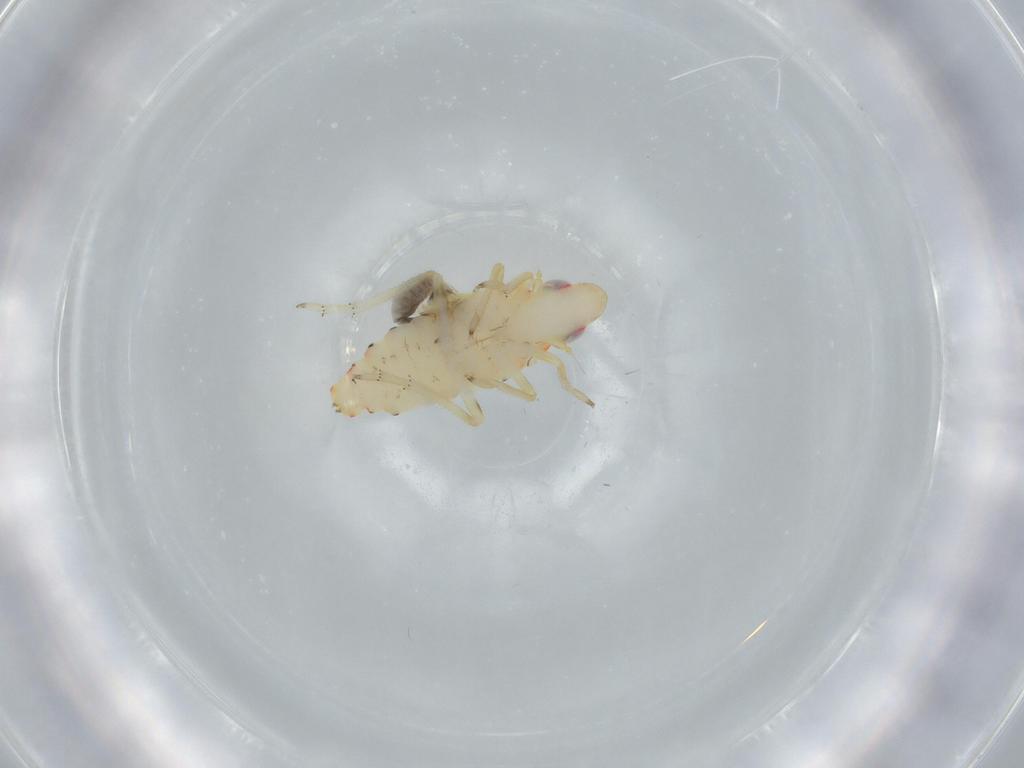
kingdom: Animalia
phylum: Arthropoda
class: Insecta
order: Hemiptera
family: Tropiduchidae
